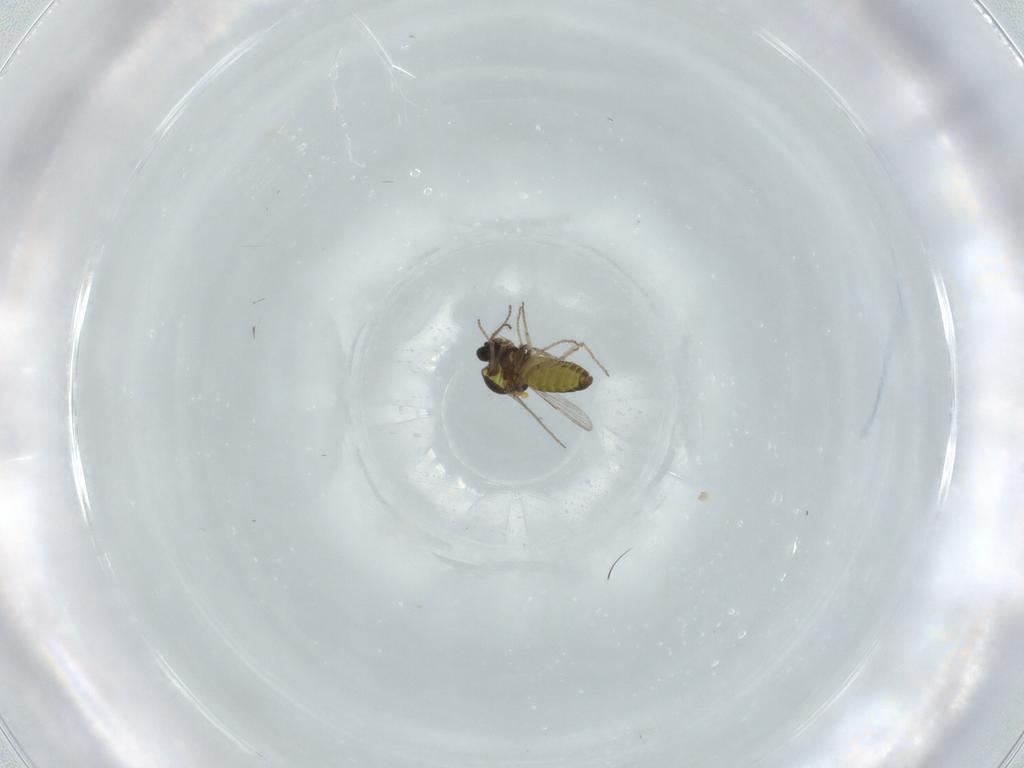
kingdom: Animalia
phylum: Arthropoda
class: Insecta
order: Diptera
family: Ceratopogonidae
